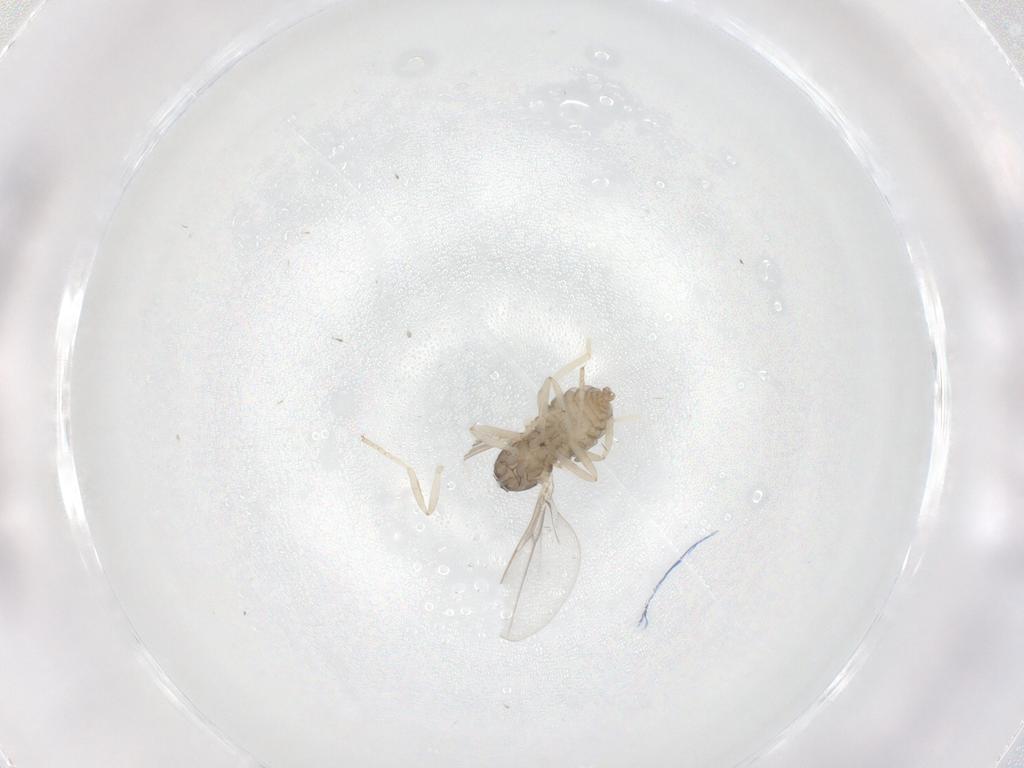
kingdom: Animalia
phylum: Arthropoda
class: Insecta
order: Diptera
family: Cecidomyiidae
